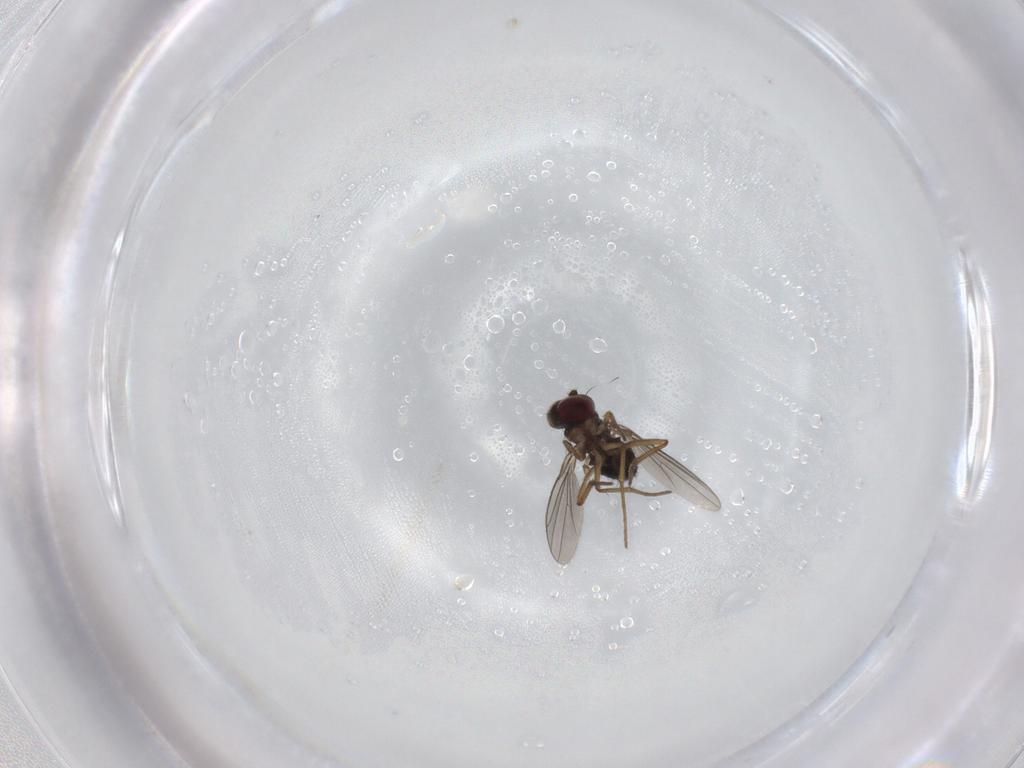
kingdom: Animalia
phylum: Arthropoda
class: Insecta
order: Diptera
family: Dolichopodidae
